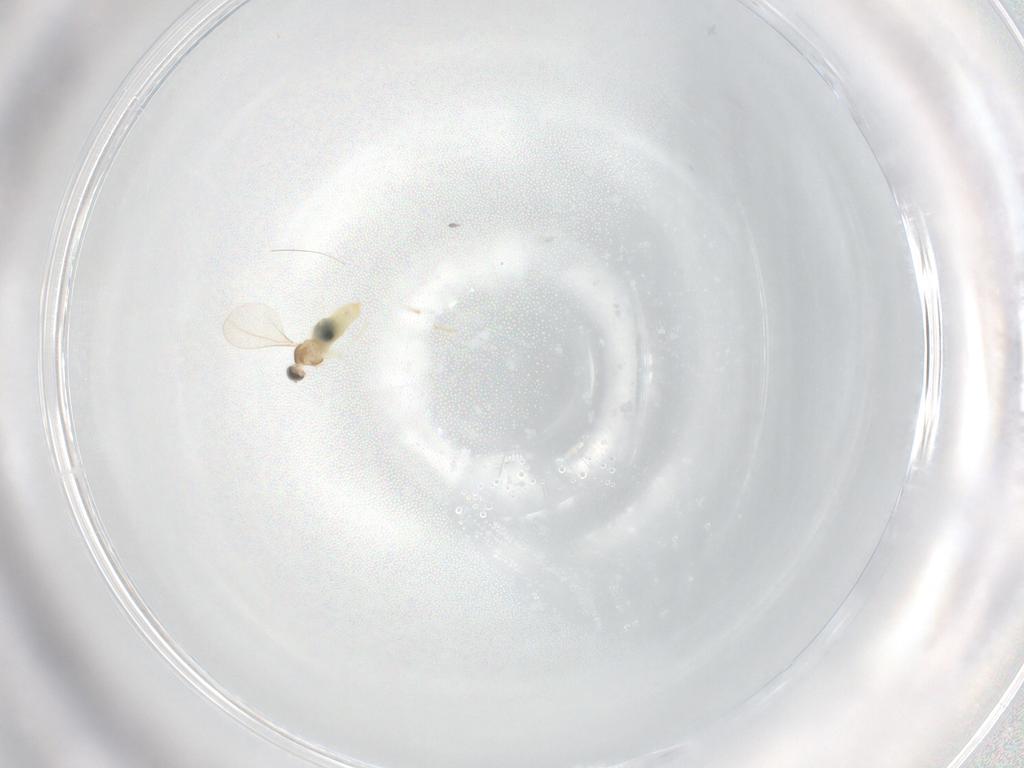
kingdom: Animalia
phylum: Arthropoda
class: Insecta
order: Diptera
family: Cecidomyiidae
